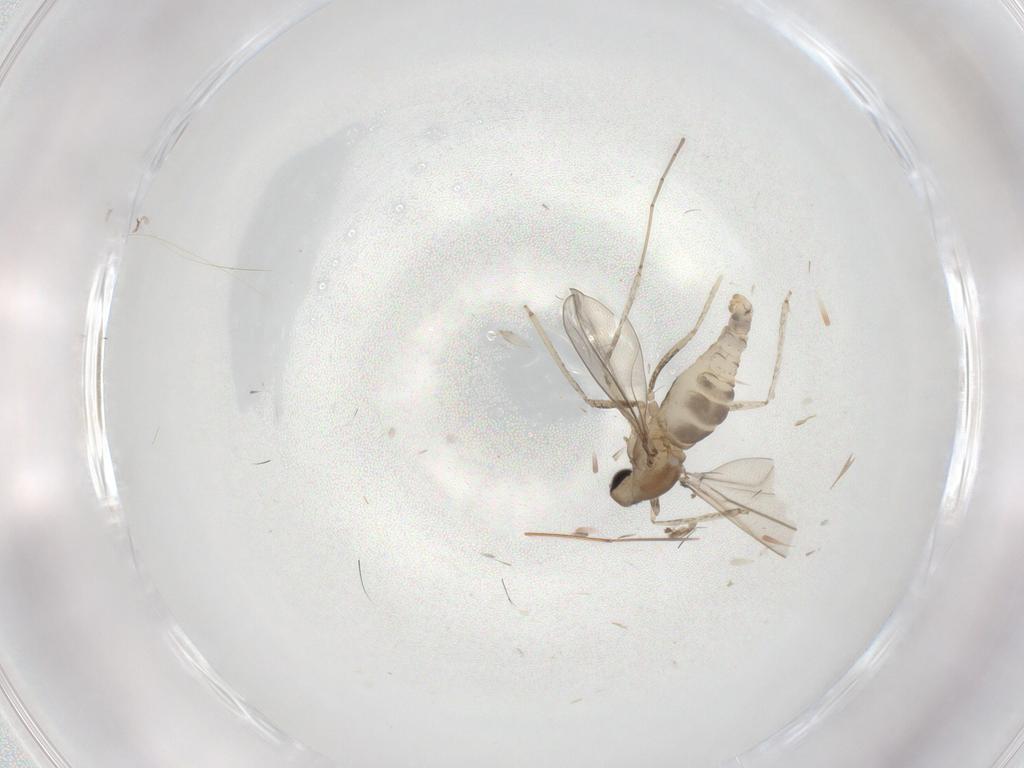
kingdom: Animalia
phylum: Arthropoda
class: Insecta
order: Diptera
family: Cecidomyiidae
